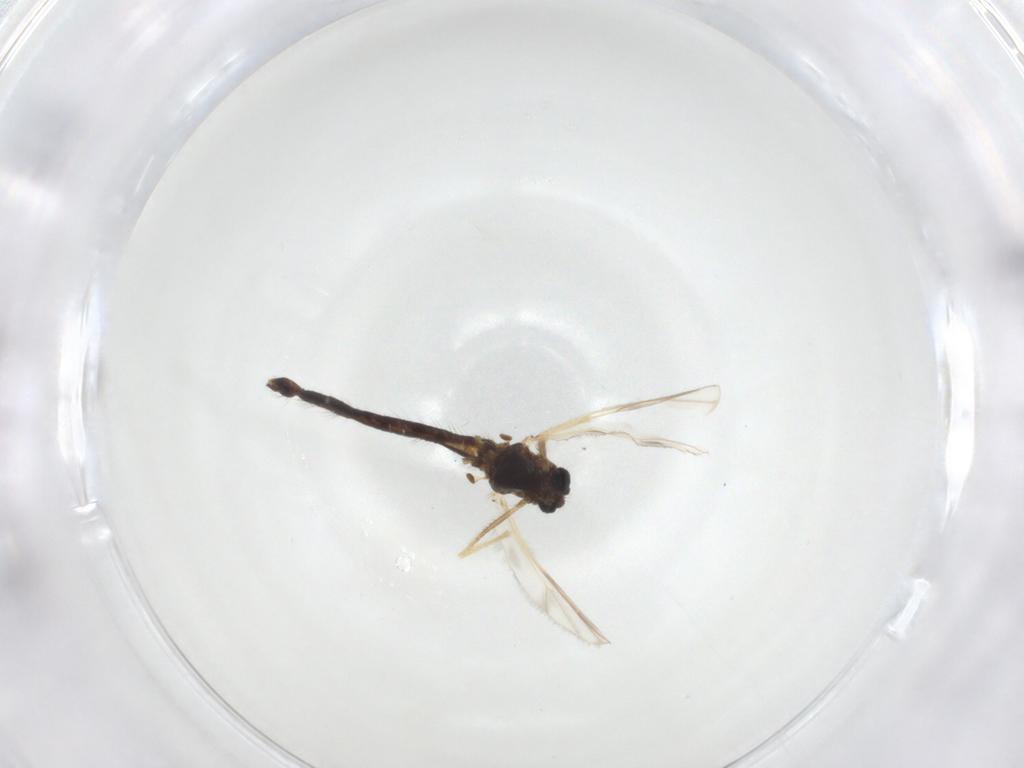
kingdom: Animalia
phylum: Arthropoda
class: Insecta
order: Diptera
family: Chironomidae
